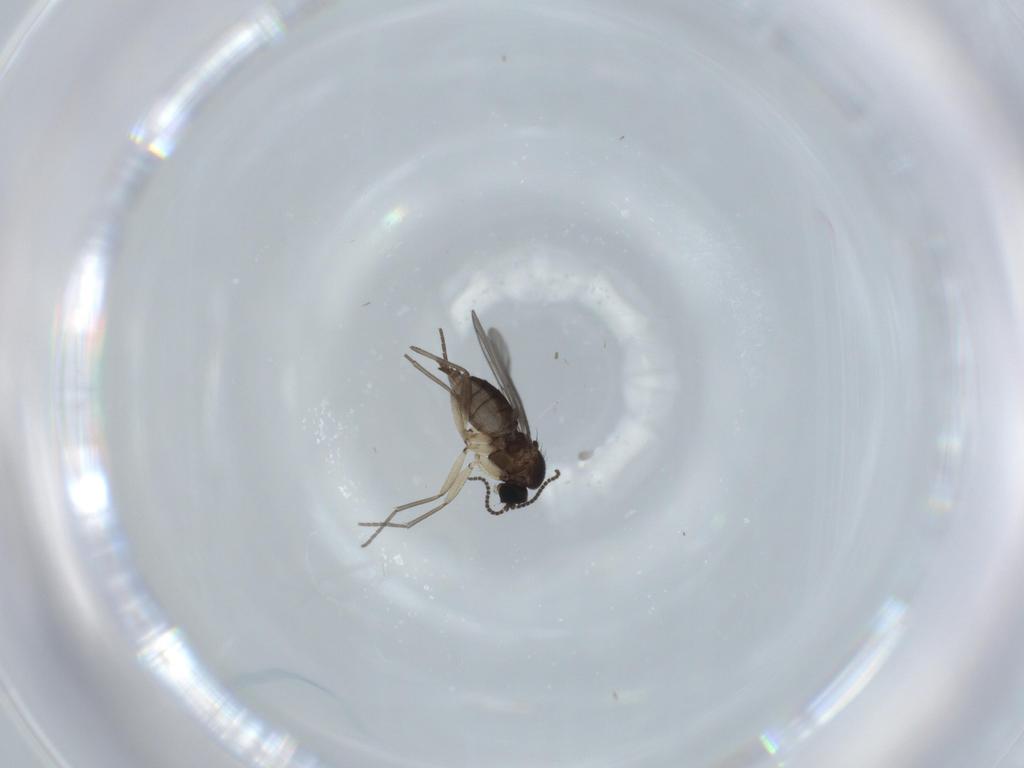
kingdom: Animalia
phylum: Arthropoda
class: Insecta
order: Diptera
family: Sciaridae
